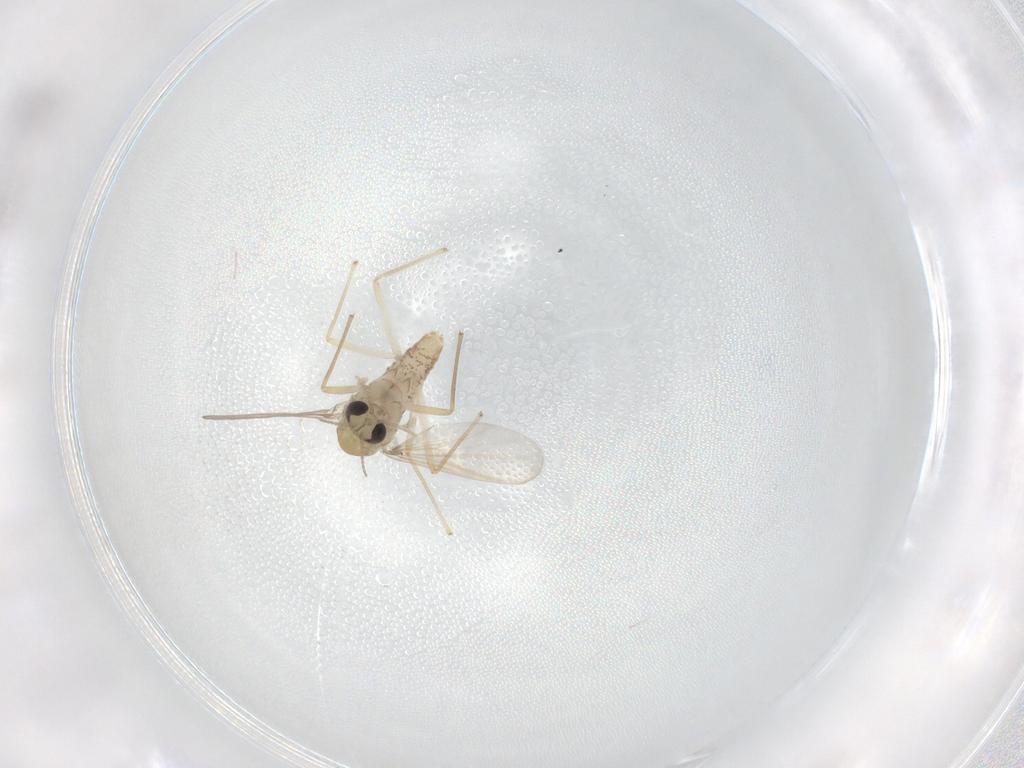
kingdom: Animalia
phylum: Arthropoda
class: Insecta
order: Diptera
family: Chironomidae
